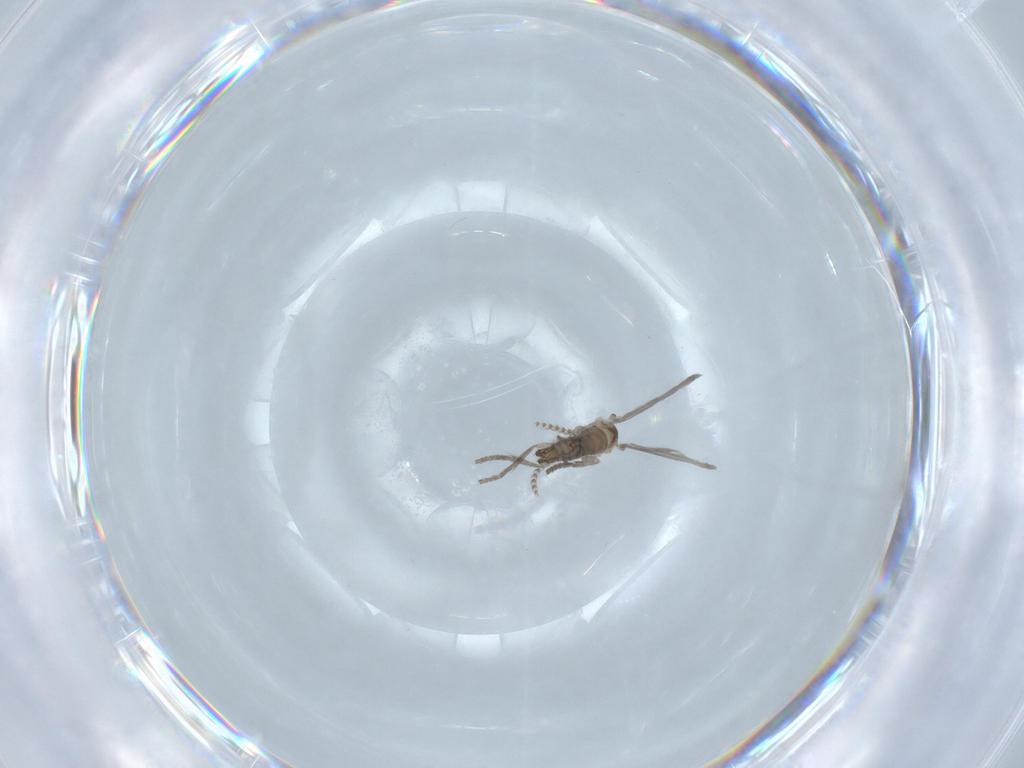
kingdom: Animalia
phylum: Arthropoda
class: Insecta
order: Diptera
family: Psychodidae
